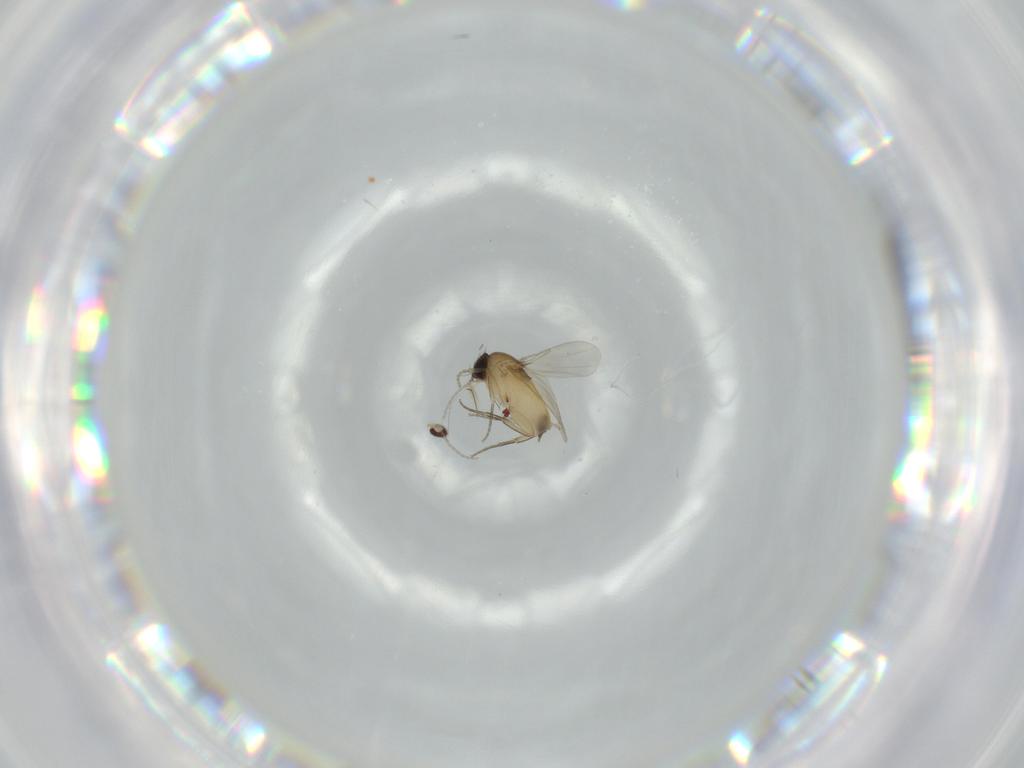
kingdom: Animalia
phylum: Arthropoda
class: Insecta
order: Diptera
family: Cecidomyiidae
